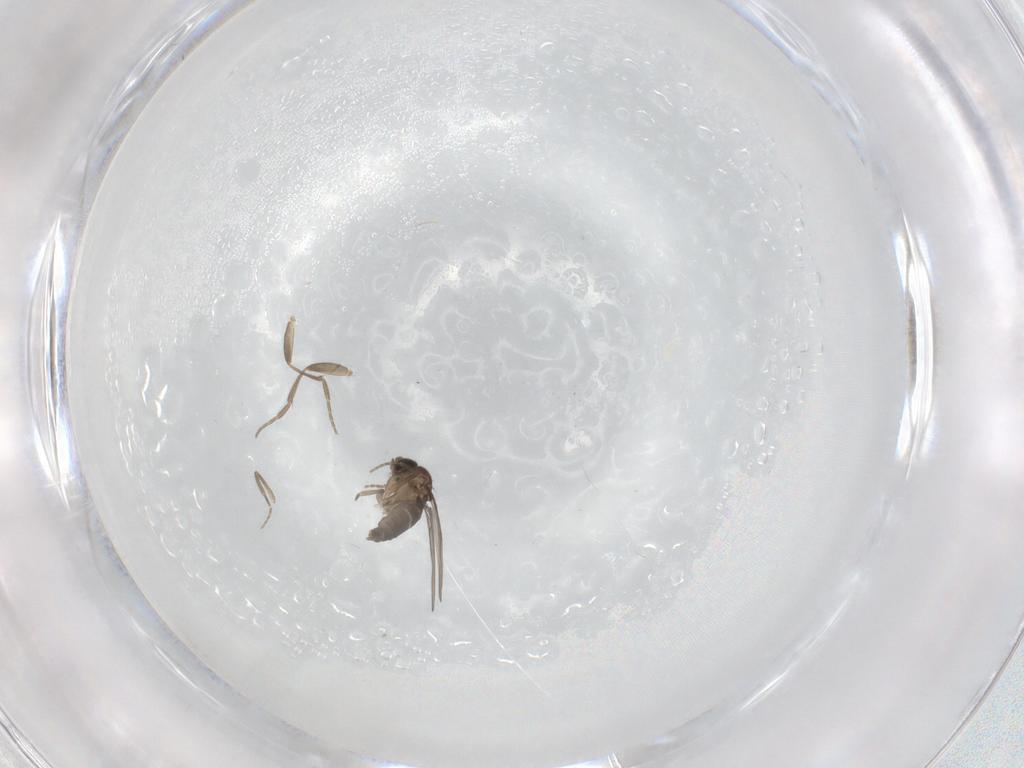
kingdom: Animalia
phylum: Arthropoda
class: Insecta
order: Diptera
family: Phoridae
